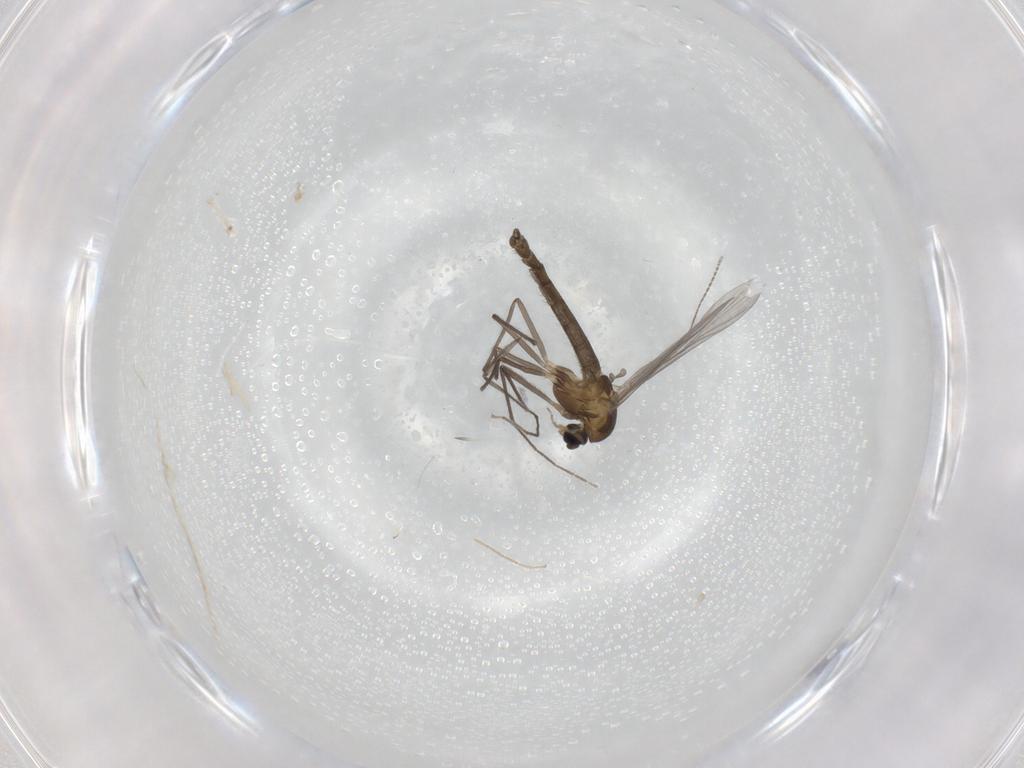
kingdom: Animalia
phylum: Arthropoda
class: Insecta
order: Diptera
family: Chironomidae
